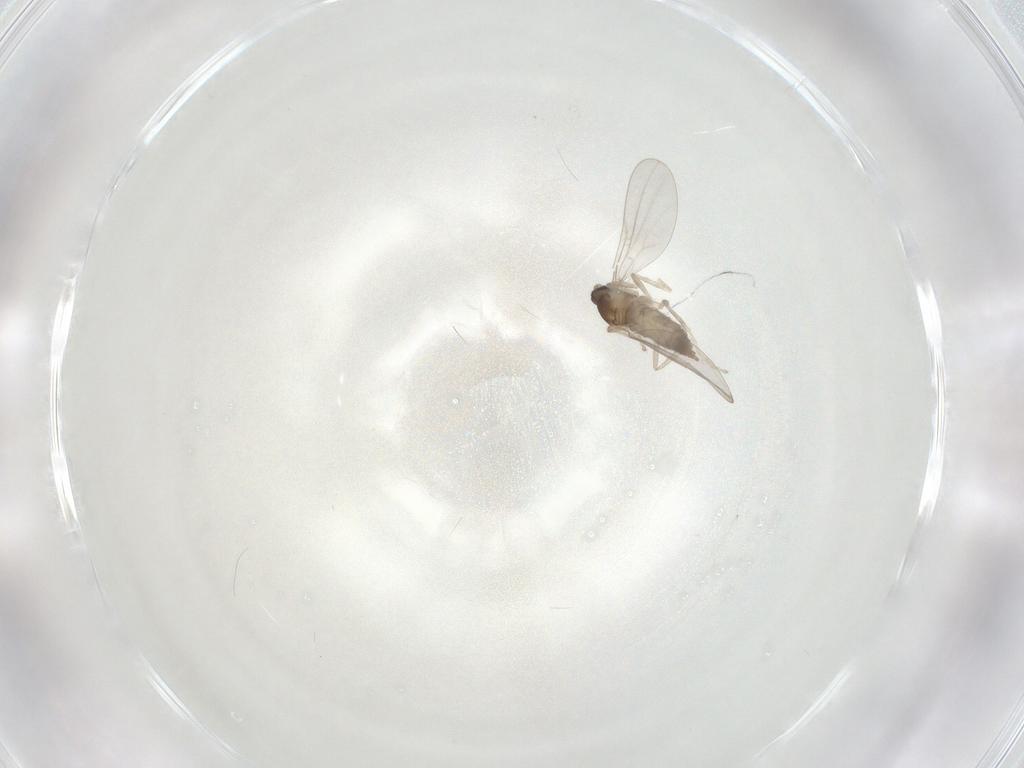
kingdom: Animalia
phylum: Arthropoda
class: Insecta
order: Diptera
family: Chironomidae
